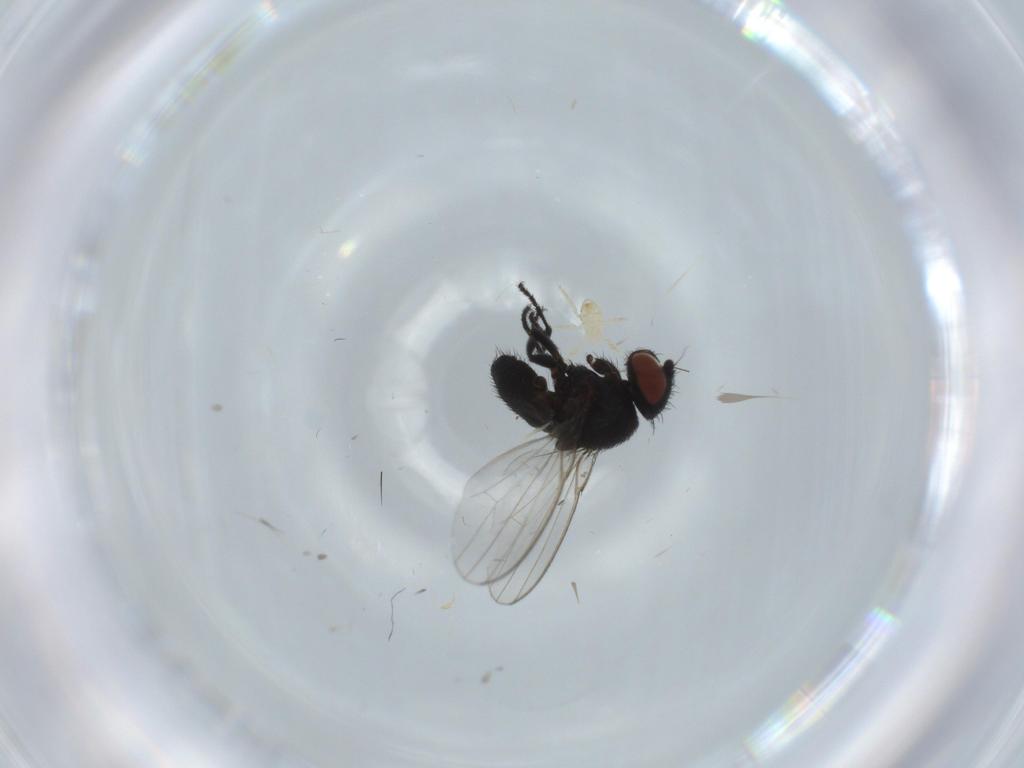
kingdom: Animalia
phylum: Arthropoda
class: Insecta
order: Diptera
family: Milichiidae
